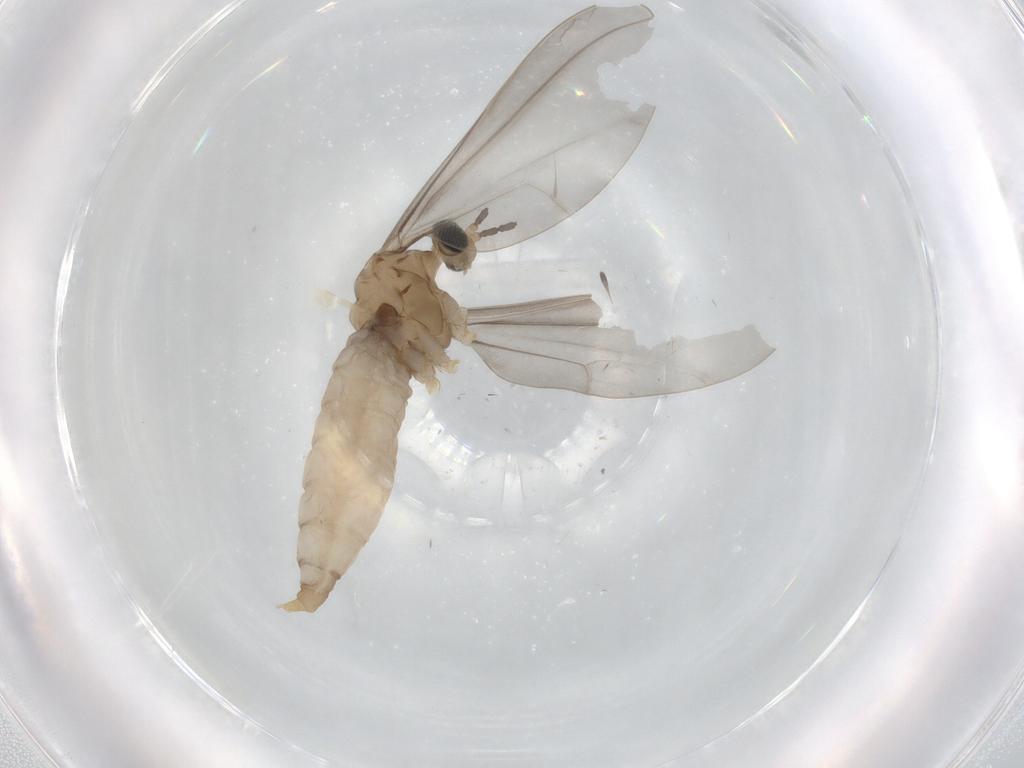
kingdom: Animalia
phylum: Arthropoda
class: Insecta
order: Diptera
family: Cecidomyiidae
